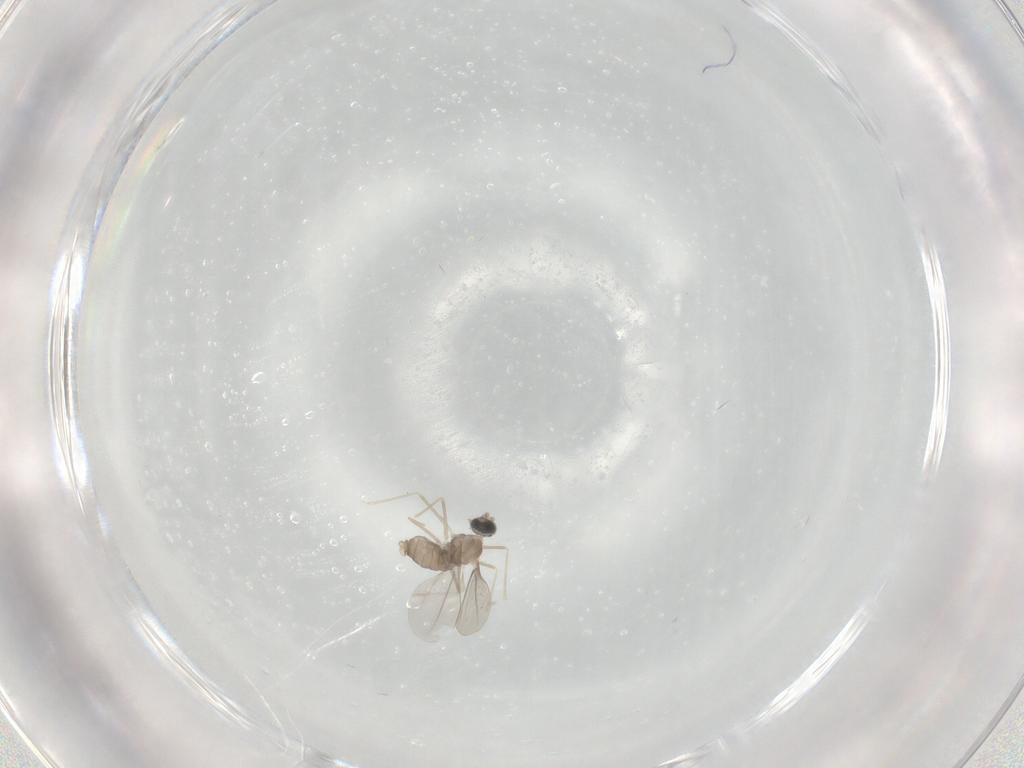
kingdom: Animalia
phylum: Arthropoda
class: Insecta
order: Diptera
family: Cecidomyiidae
